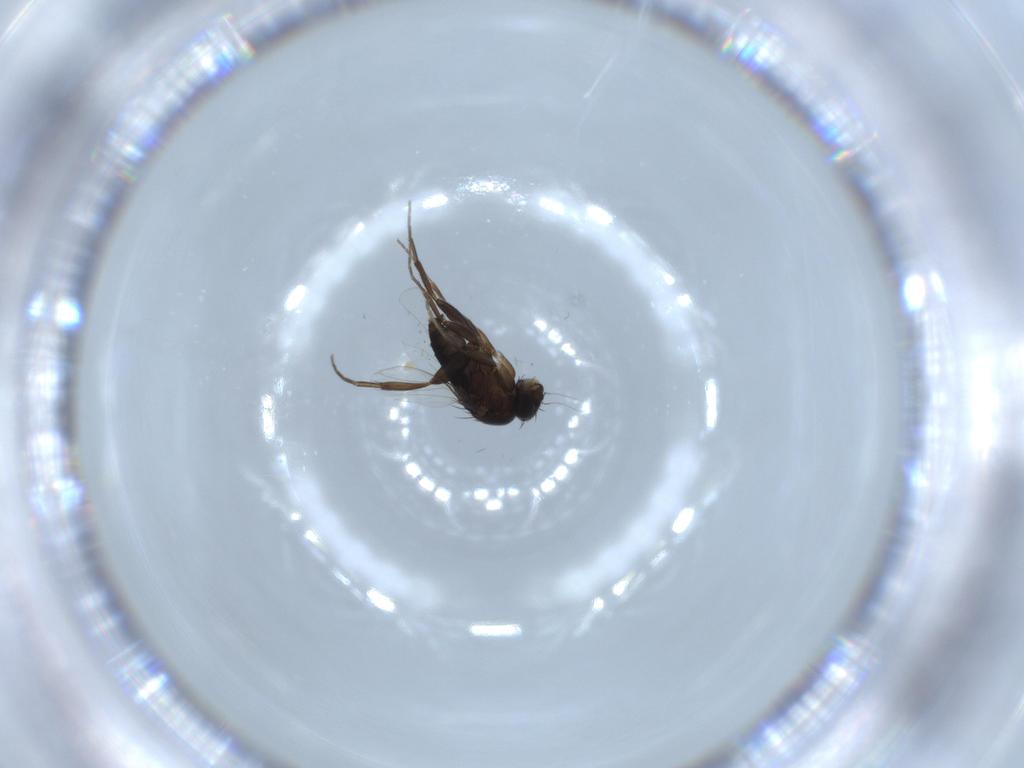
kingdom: Animalia
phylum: Arthropoda
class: Insecta
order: Diptera
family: Phoridae
